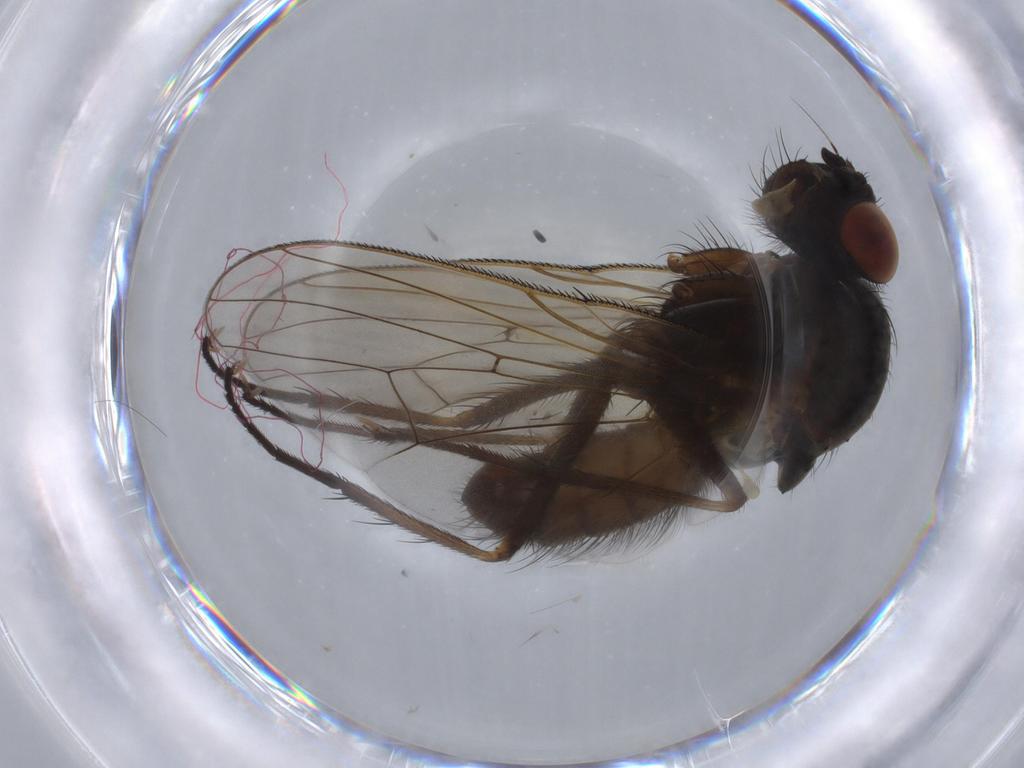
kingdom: Animalia
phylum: Arthropoda
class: Insecta
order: Diptera
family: Anthomyiidae
